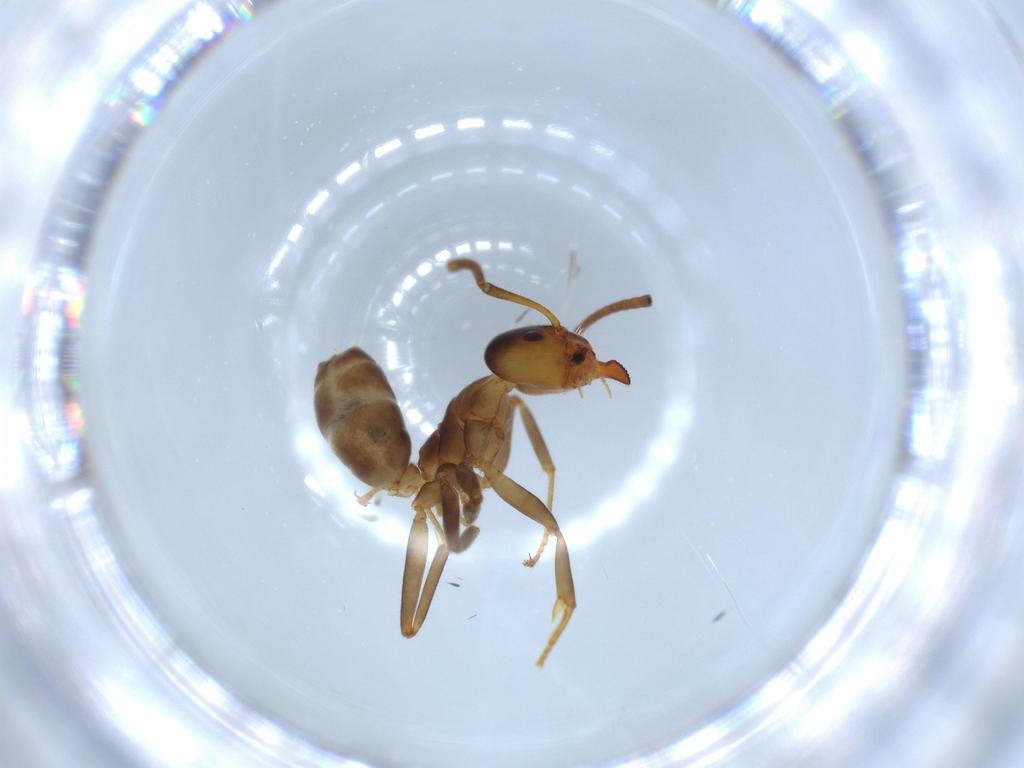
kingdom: Animalia
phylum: Arthropoda
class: Insecta
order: Hymenoptera
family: Formicidae
